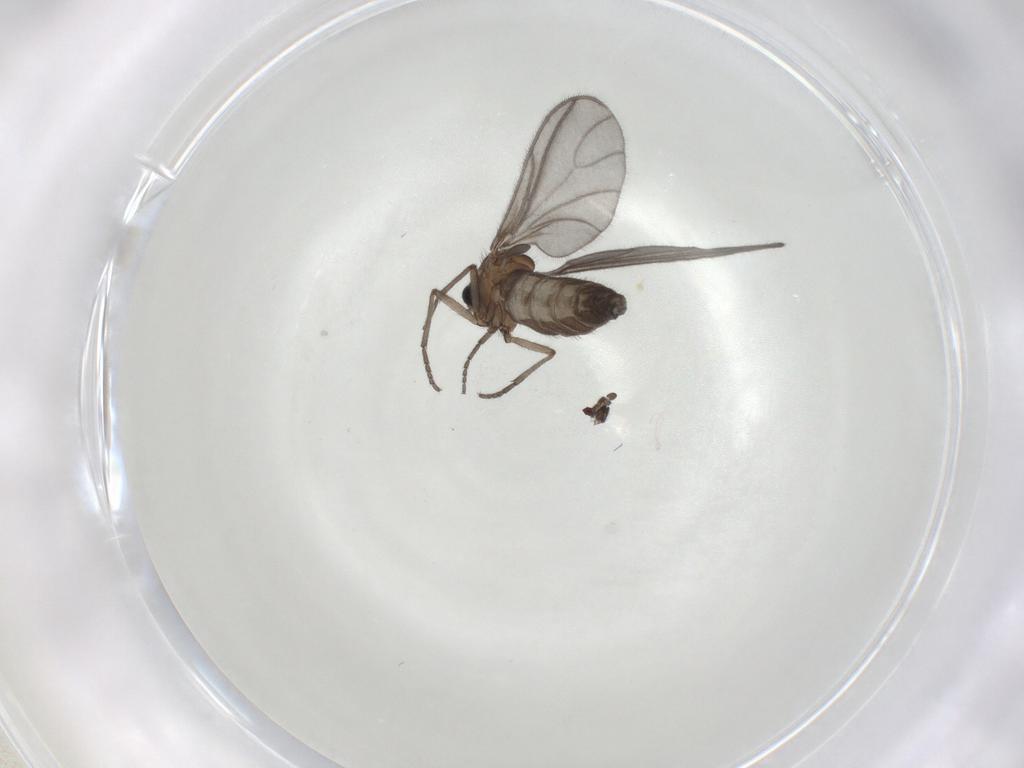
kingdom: Animalia
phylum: Arthropoda
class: Insecta
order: Diptera
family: Sciaridae
